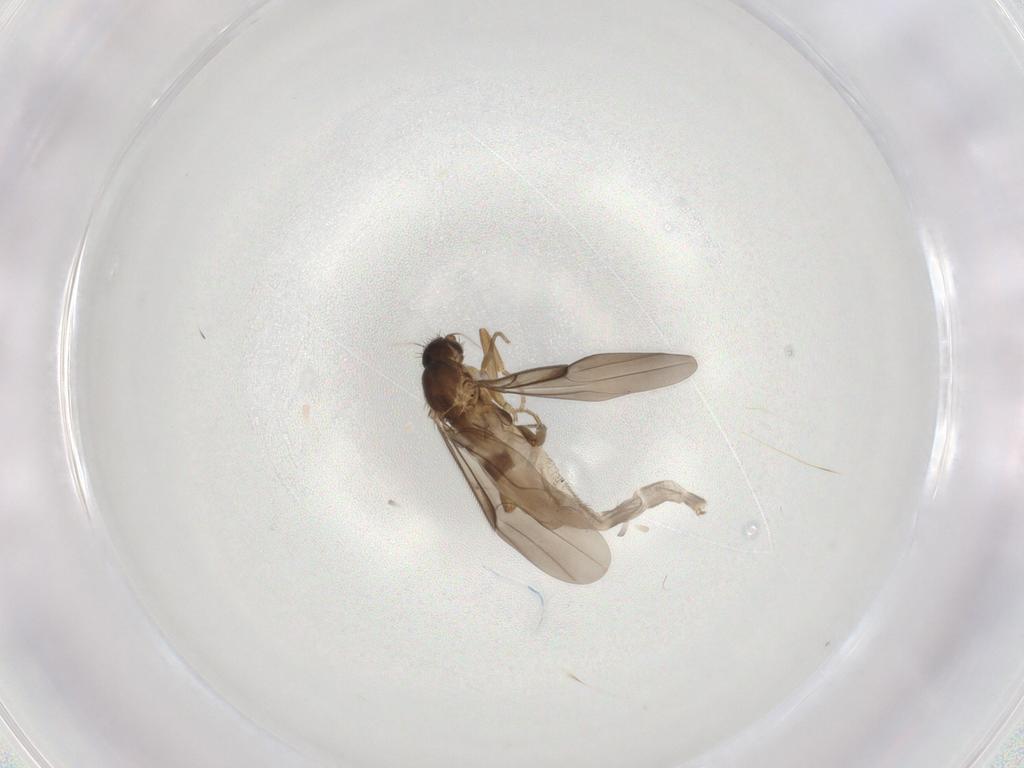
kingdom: Animalia
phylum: Arthropoda
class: Insecta
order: Diptera
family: Phoridae
